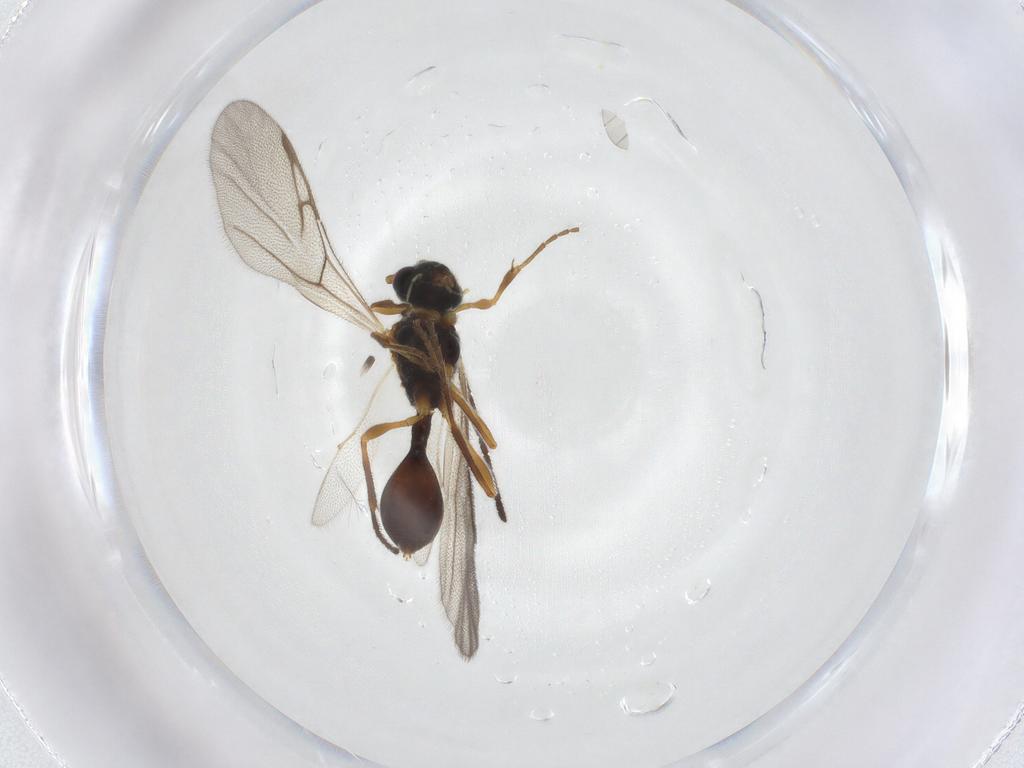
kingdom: Animalia
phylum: Arthropoda
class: Insecta
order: Hymenoptera
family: Diapriidae
